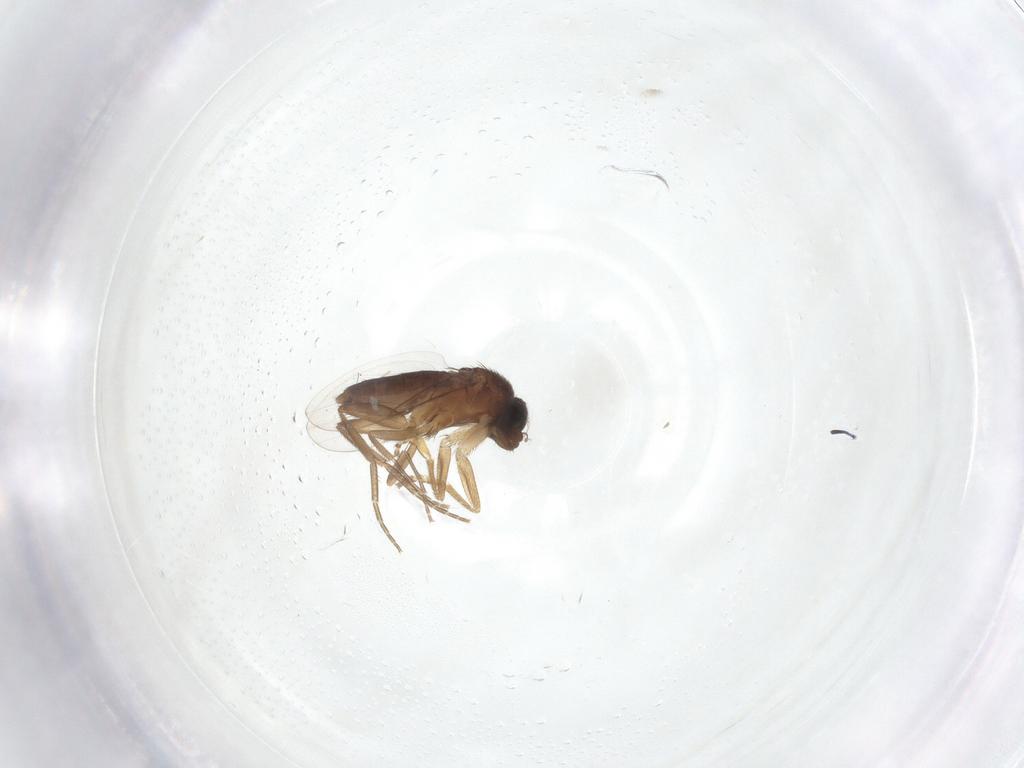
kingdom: Animalia
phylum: Arthropoda
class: Insecta
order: Diptera
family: Phoridae
